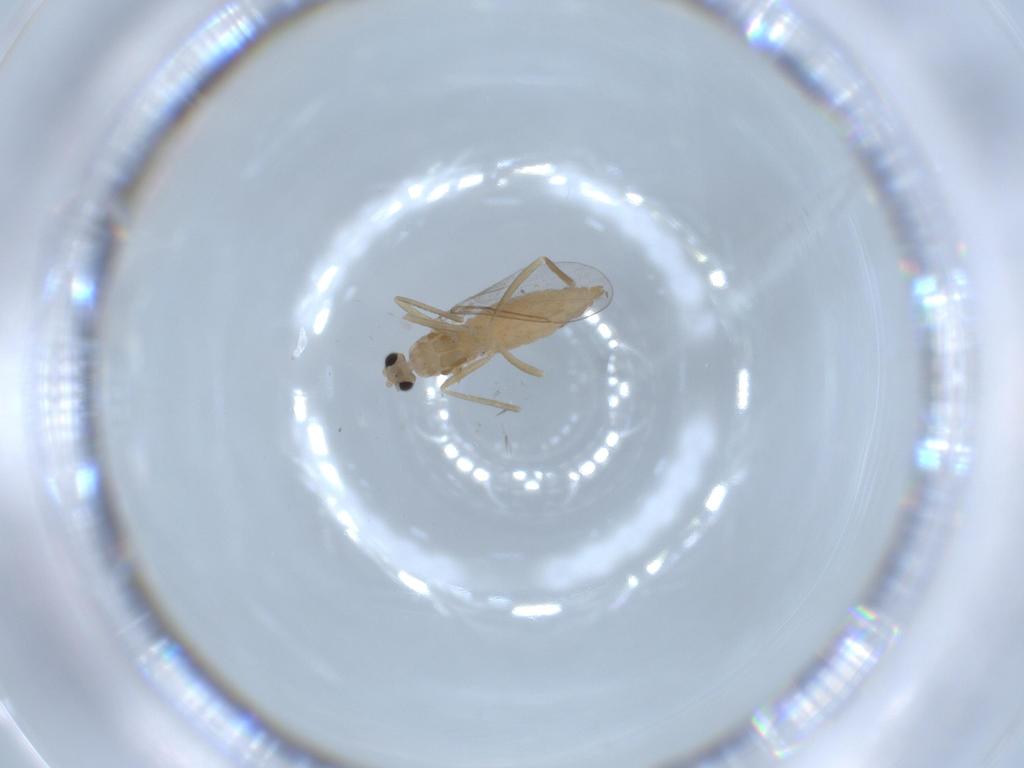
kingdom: Animalia
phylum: Arthropoda
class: Insecta
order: Diptera
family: Cecidomyiidae
